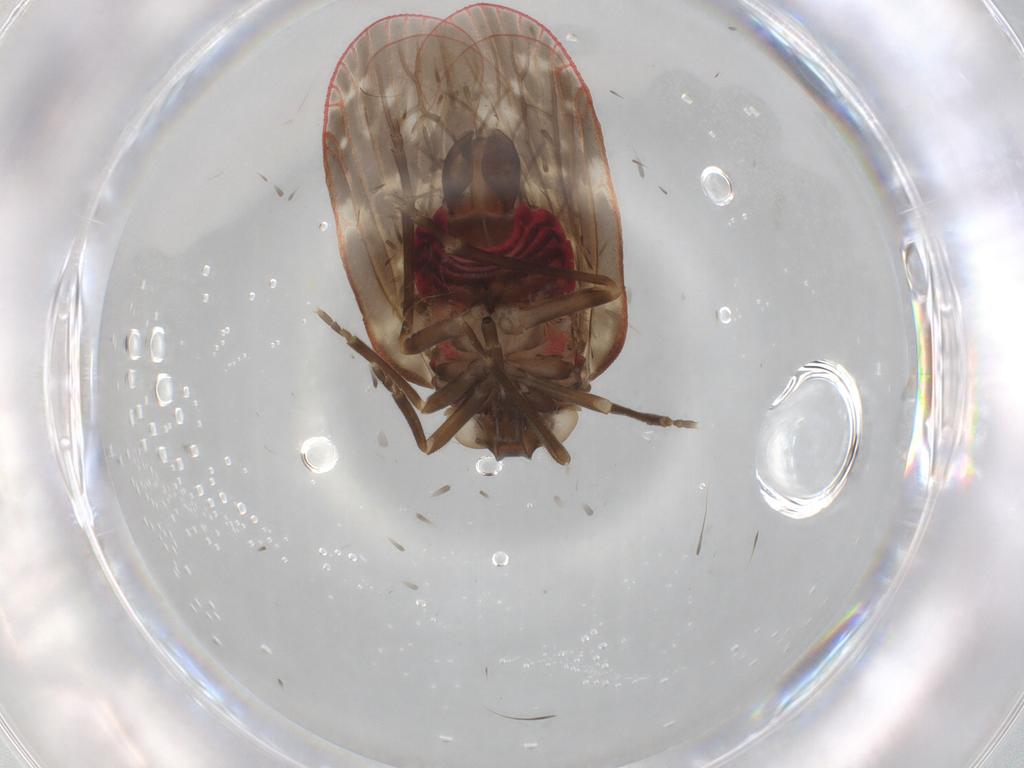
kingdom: Animalia
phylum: Arthropoda
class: Insecta
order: Hemiptera
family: Achilidae
